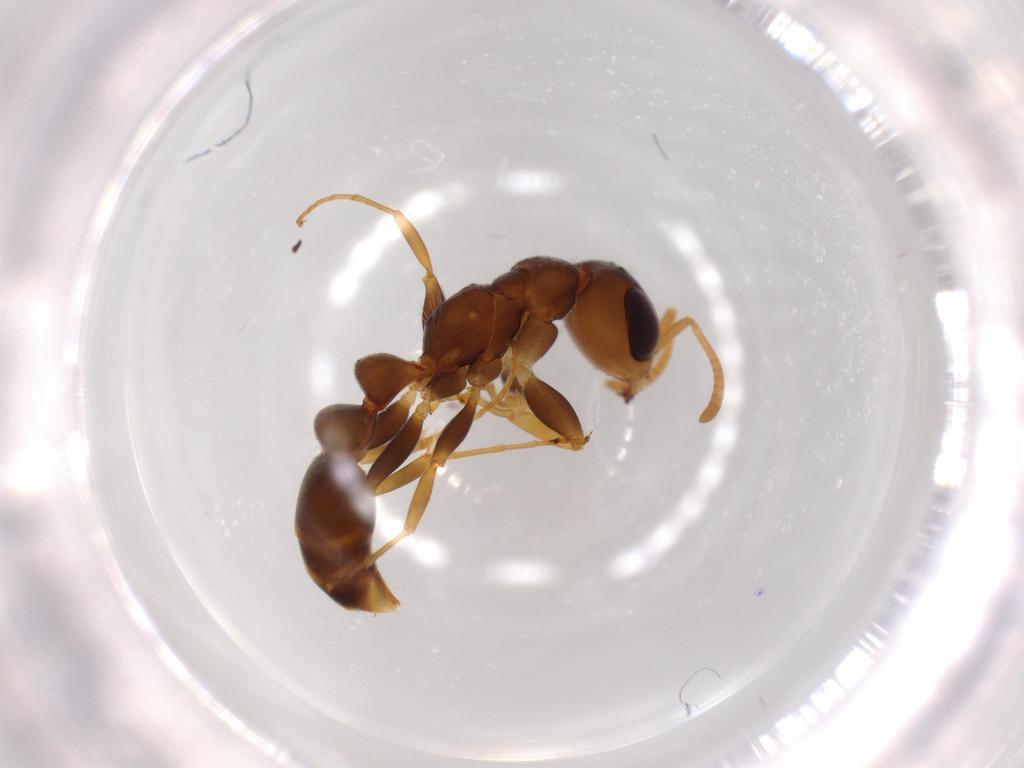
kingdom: Animalia
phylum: Arthropoda
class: Insecta
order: Hymenoptera
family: Formicidae
